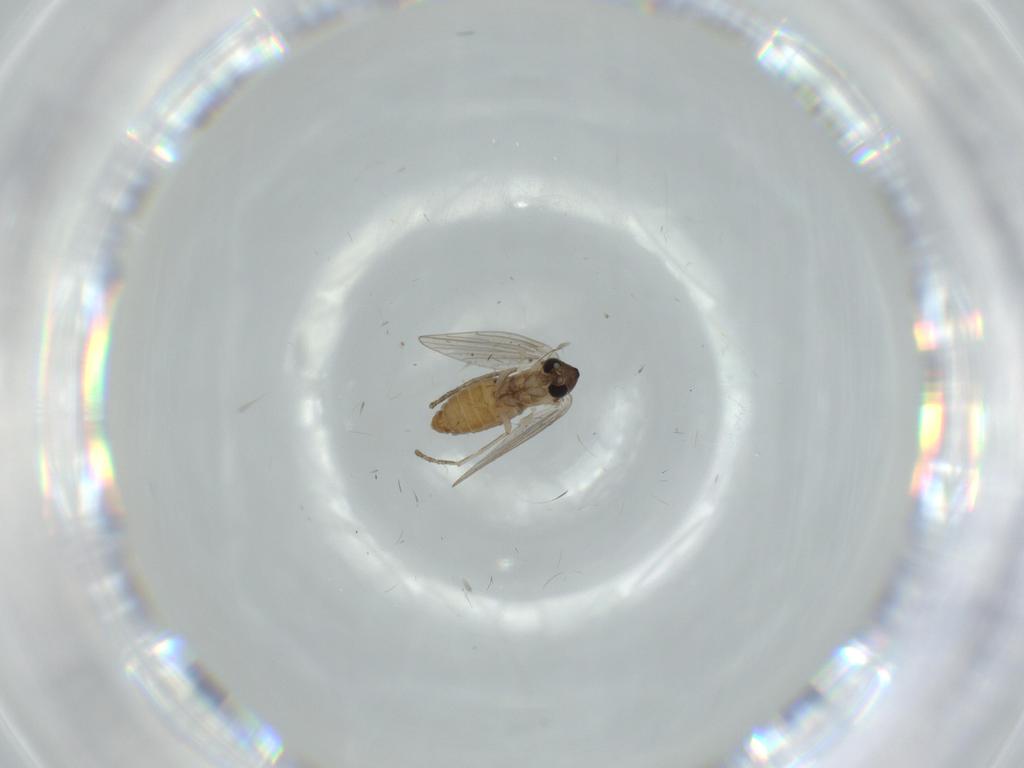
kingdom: Animalia
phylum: Arthropoda
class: Insecta
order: Diptera
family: Psychodidae
